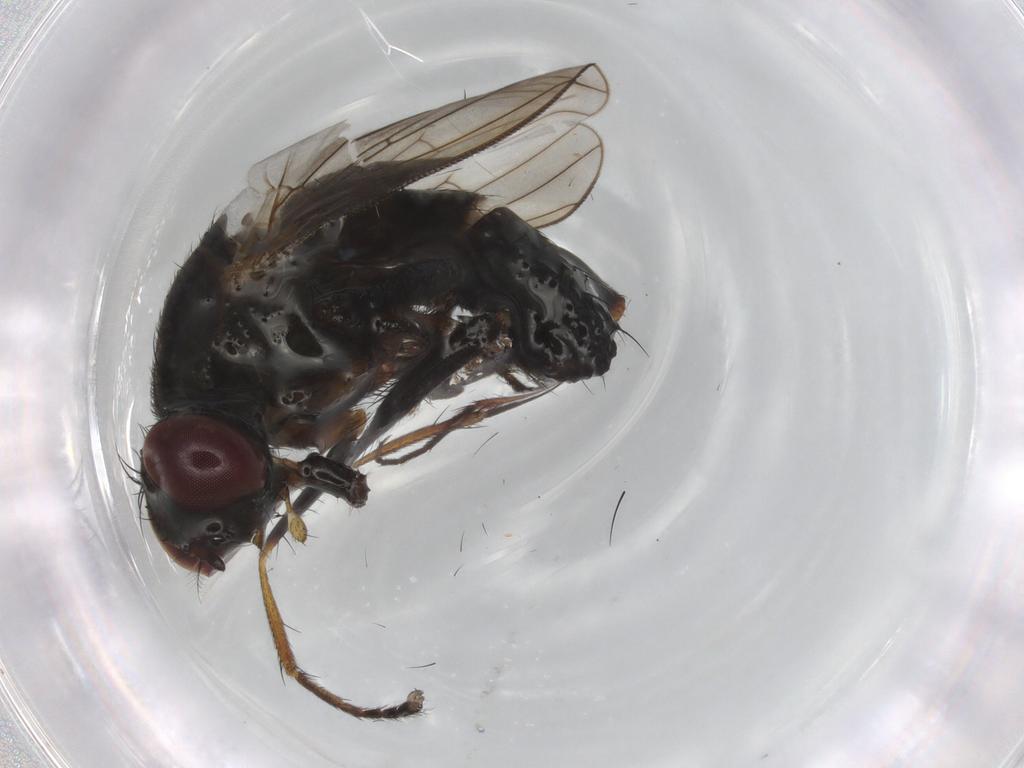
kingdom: Animalia
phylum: Arthropoda
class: Insecta
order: Diptera
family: Muscidae
